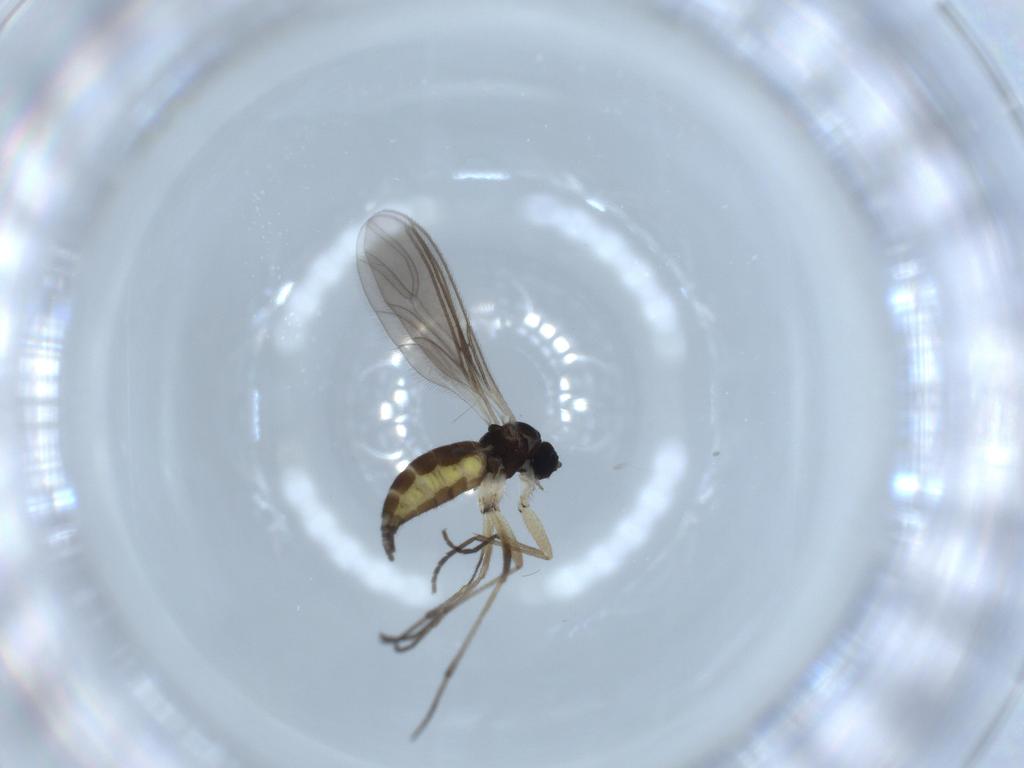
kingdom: Animalia
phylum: Arthropoda
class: Insecta
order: Diptera
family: Sciaridae
